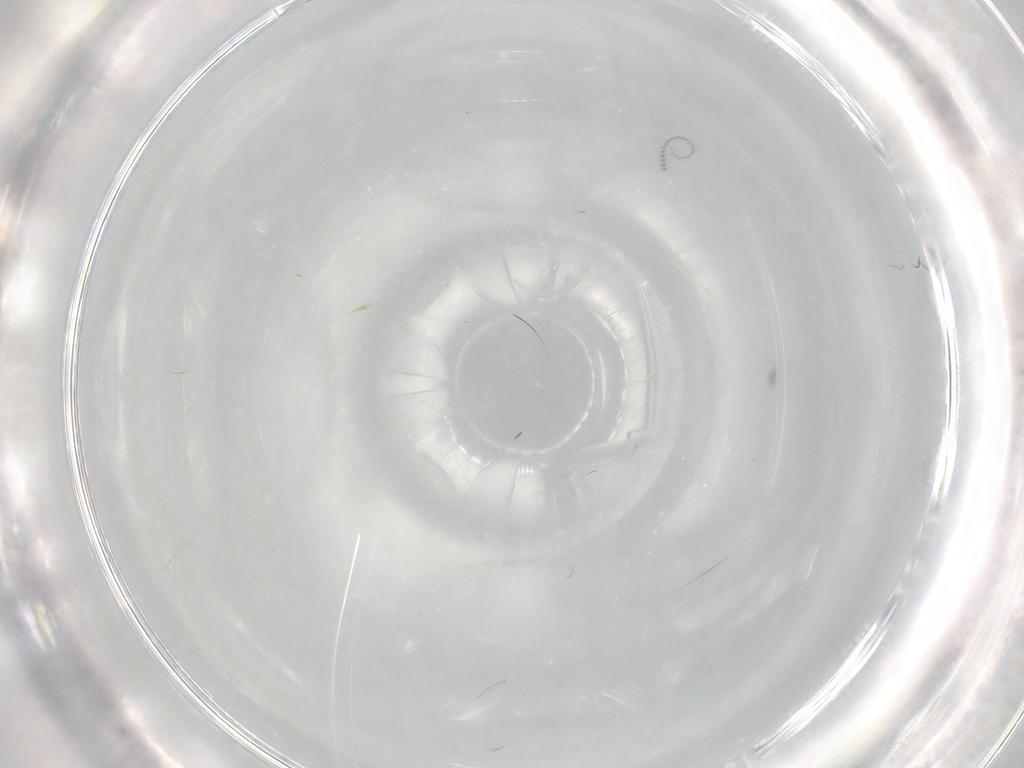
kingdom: Animalia
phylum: Arthropoda
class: Insecta
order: Diptera
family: Cecidomyiidae
